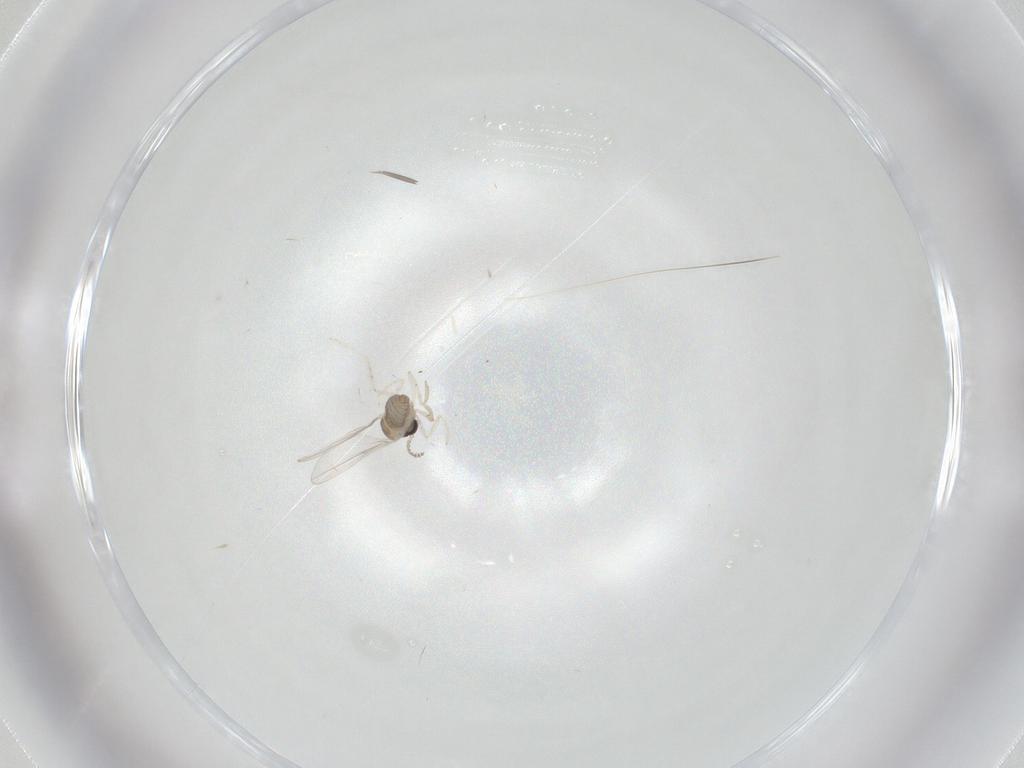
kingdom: Animalia
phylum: Arthropoda
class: Insecta
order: Diptera
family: Cecidomyiidae
